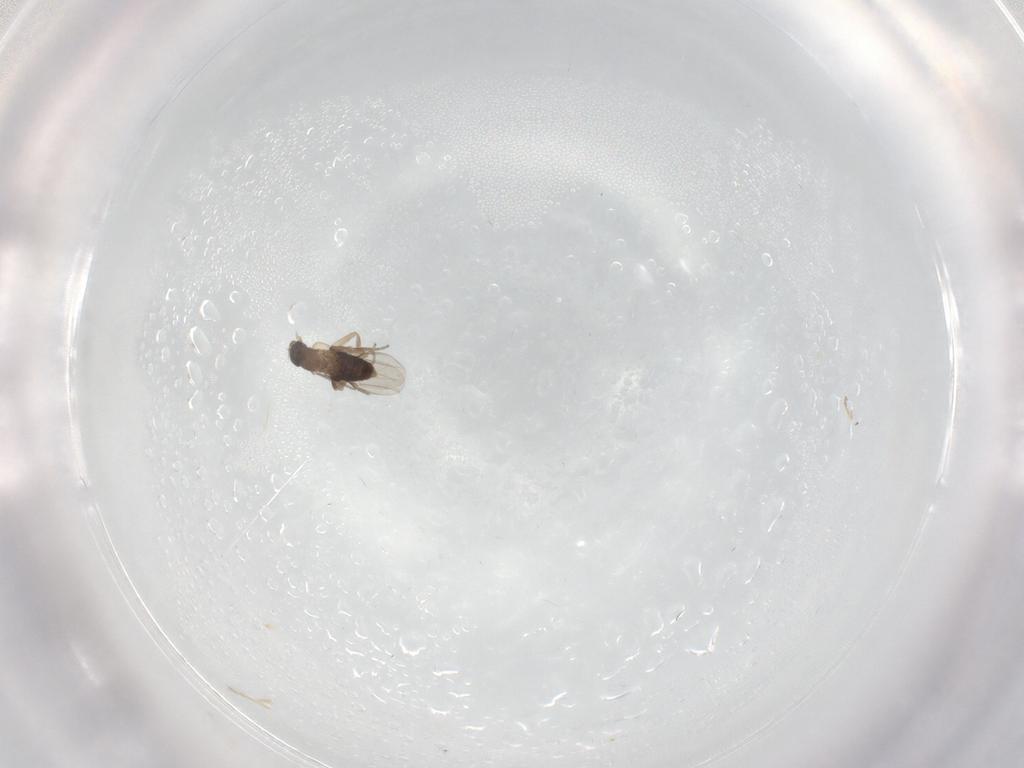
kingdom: Animalia
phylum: Arthropoda
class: Insecta
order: Diptera
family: Cecidomyiidae
